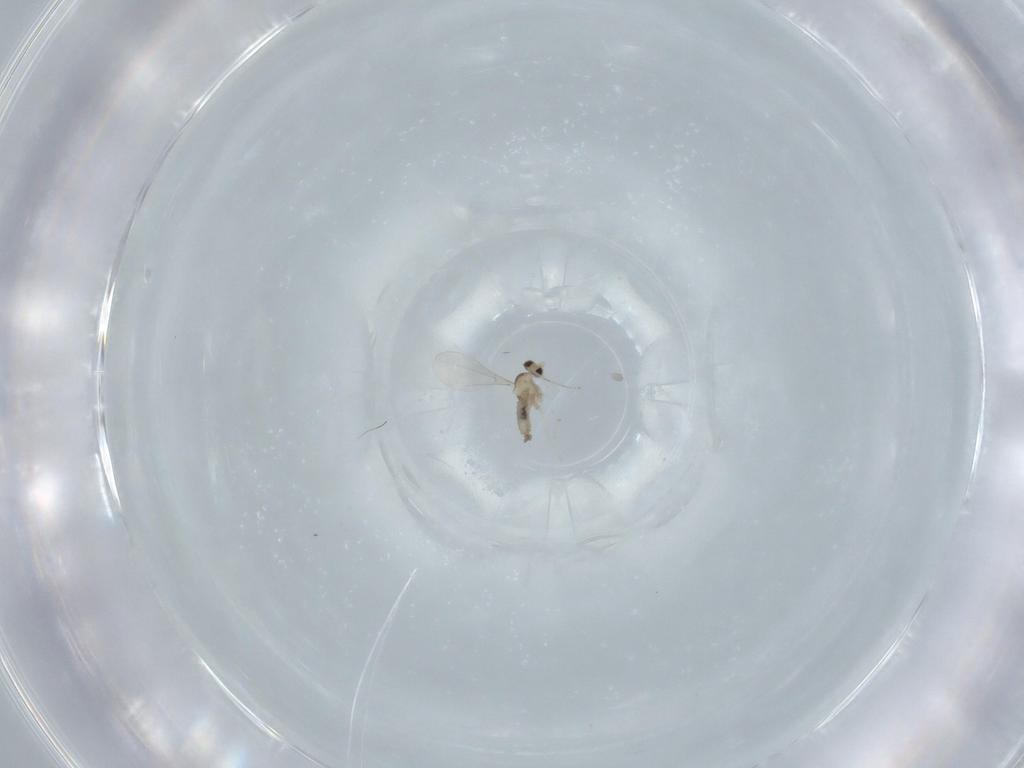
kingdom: Animalia
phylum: Arthropoda
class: Insecta
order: Diptera
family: Cecidomyiidae
